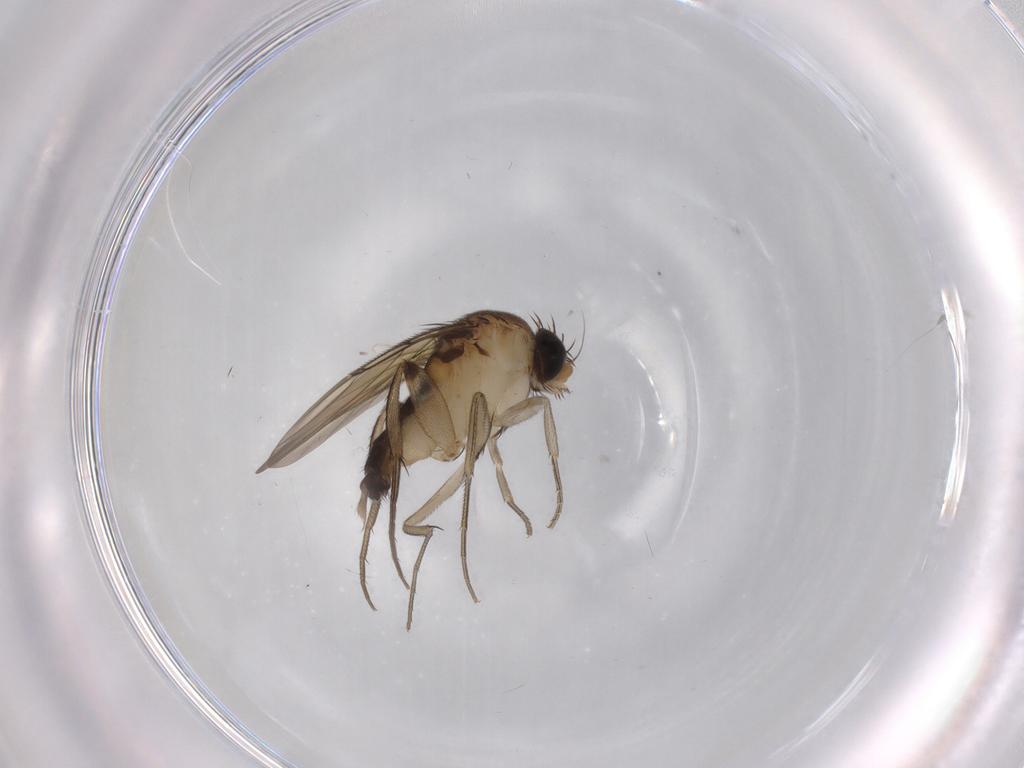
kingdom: Animalia
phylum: Arthropoda
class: Insecta
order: Diptera
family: Phoridae
